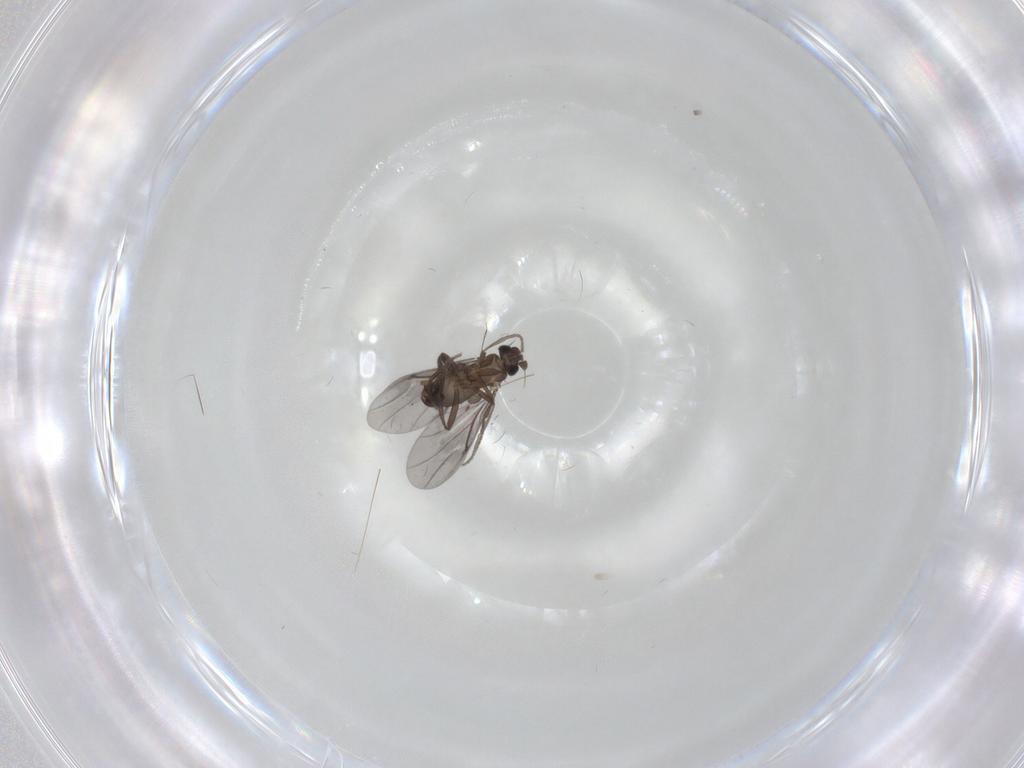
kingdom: Animalia
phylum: Arthropoda
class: Insecta
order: Diptera
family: Phoridae
